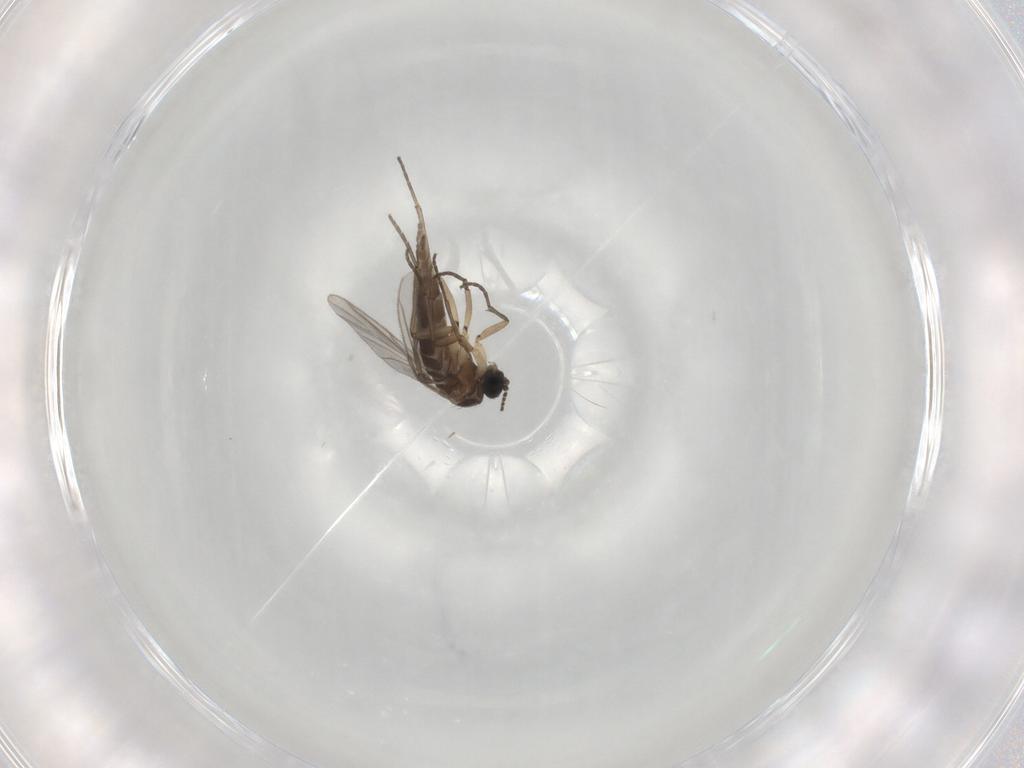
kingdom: Animalia
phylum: Arthropoda
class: Insecta
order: Diptera
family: Sciaridae
